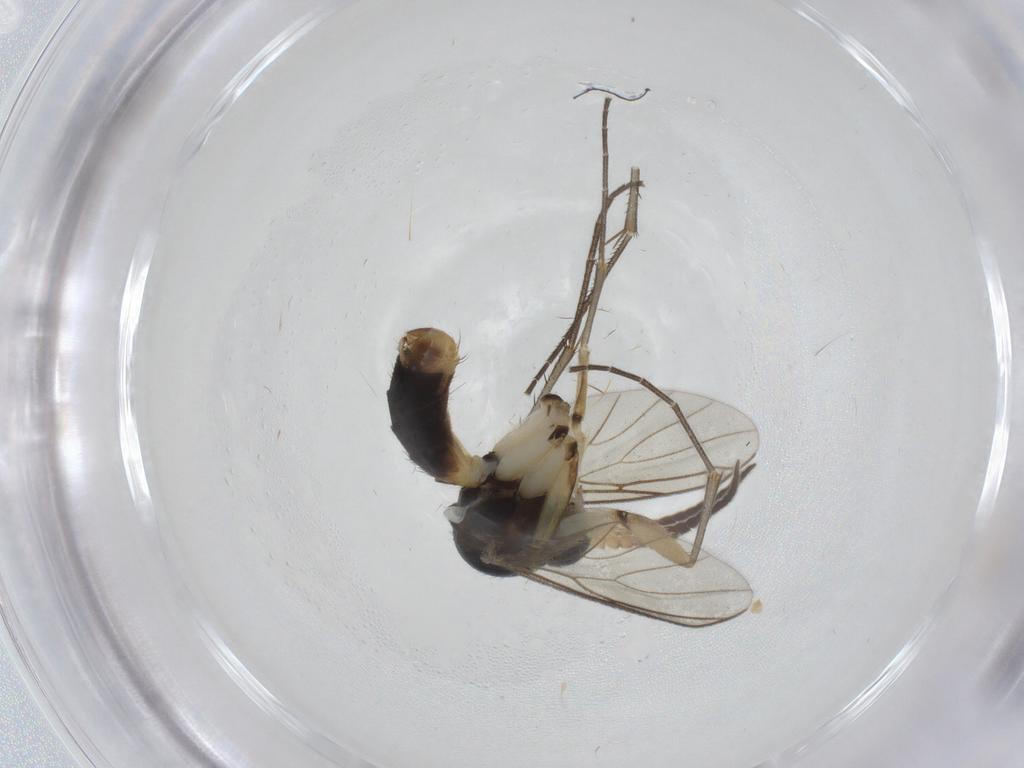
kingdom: Animalia
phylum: Arthropoda
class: Insecta
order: Diptera
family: Mycetophilidae
